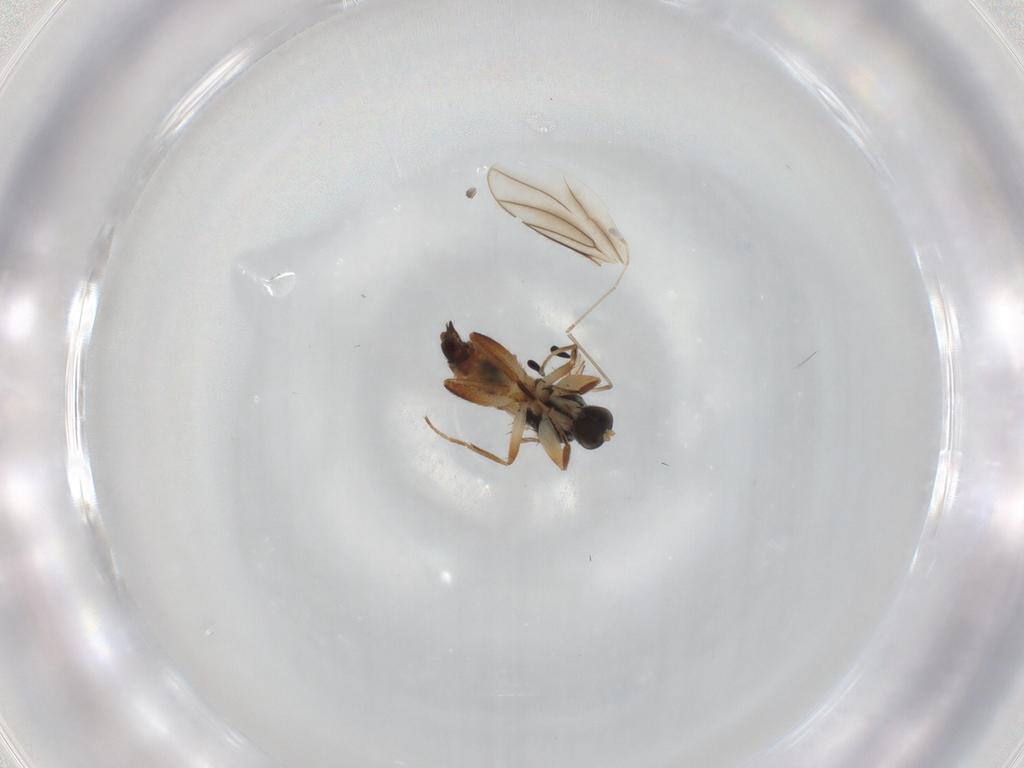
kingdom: Animalia
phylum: Arthropoda
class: Insecta
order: Diptera
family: Hybotidae
